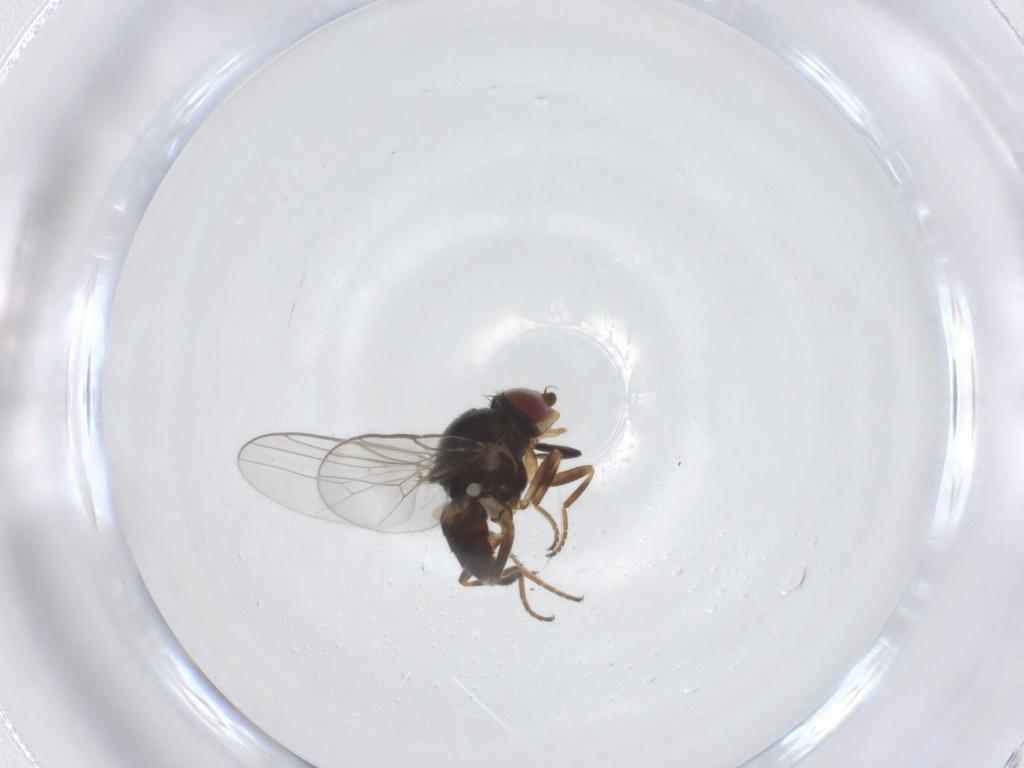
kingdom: Animalia
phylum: Arthropoda
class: Insecta
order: Diptera
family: Chloropidae
